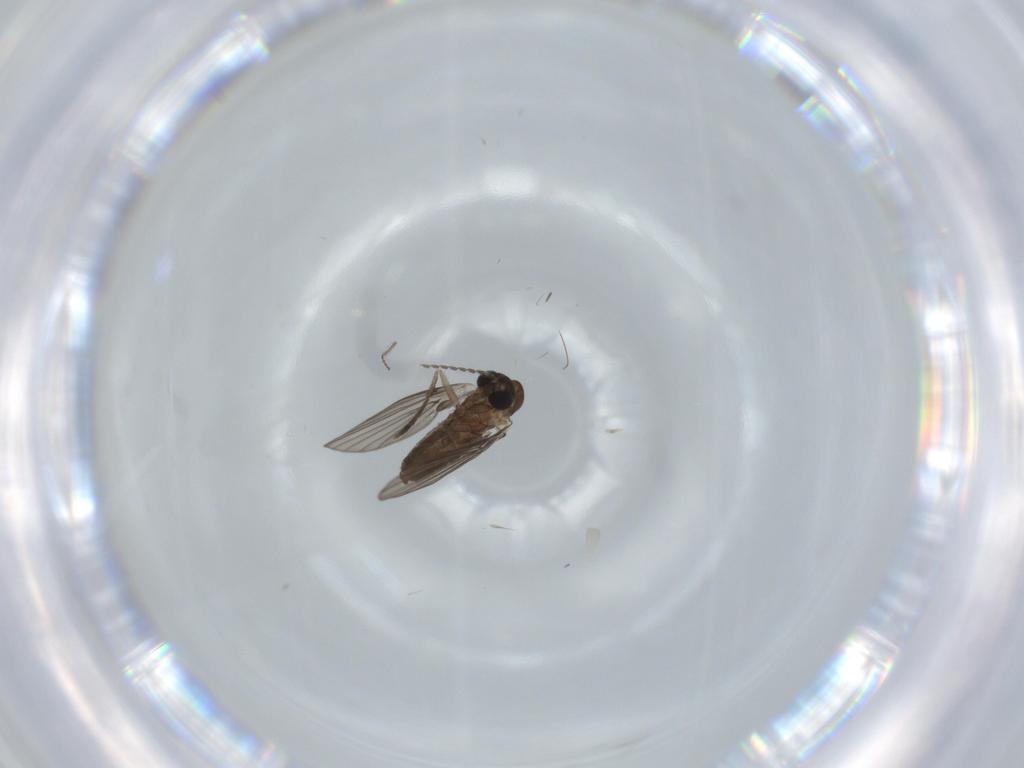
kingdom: Animalia
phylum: Arthropoda
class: Insecta
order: Diptera
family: Ceratopogonidae
